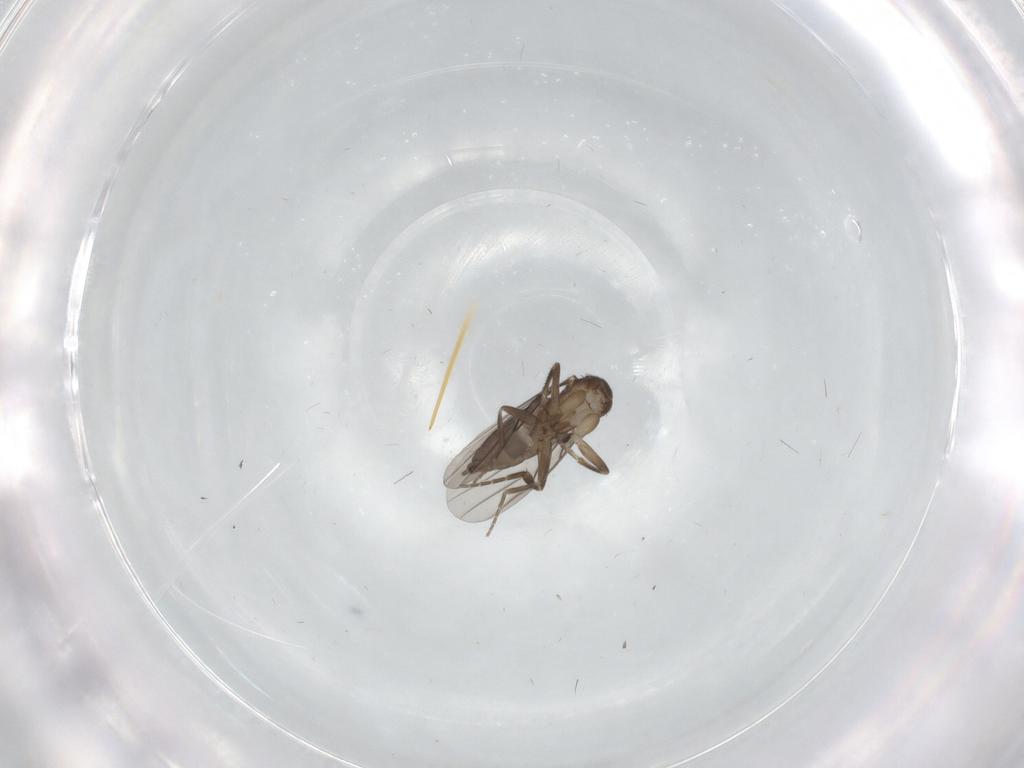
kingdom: Animalia
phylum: Arthropoda
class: Insecta
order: Diptera
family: Phoridae
